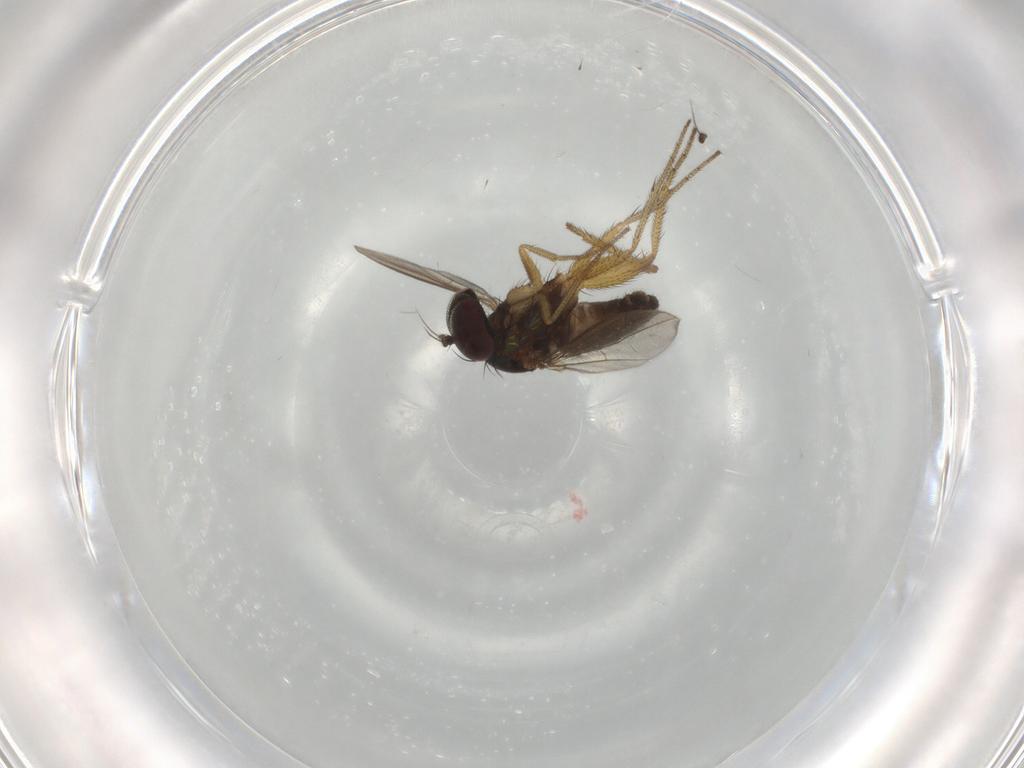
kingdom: Animalia
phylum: Arthropoda
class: Insecta
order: Diptera
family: Dolichopodidae
